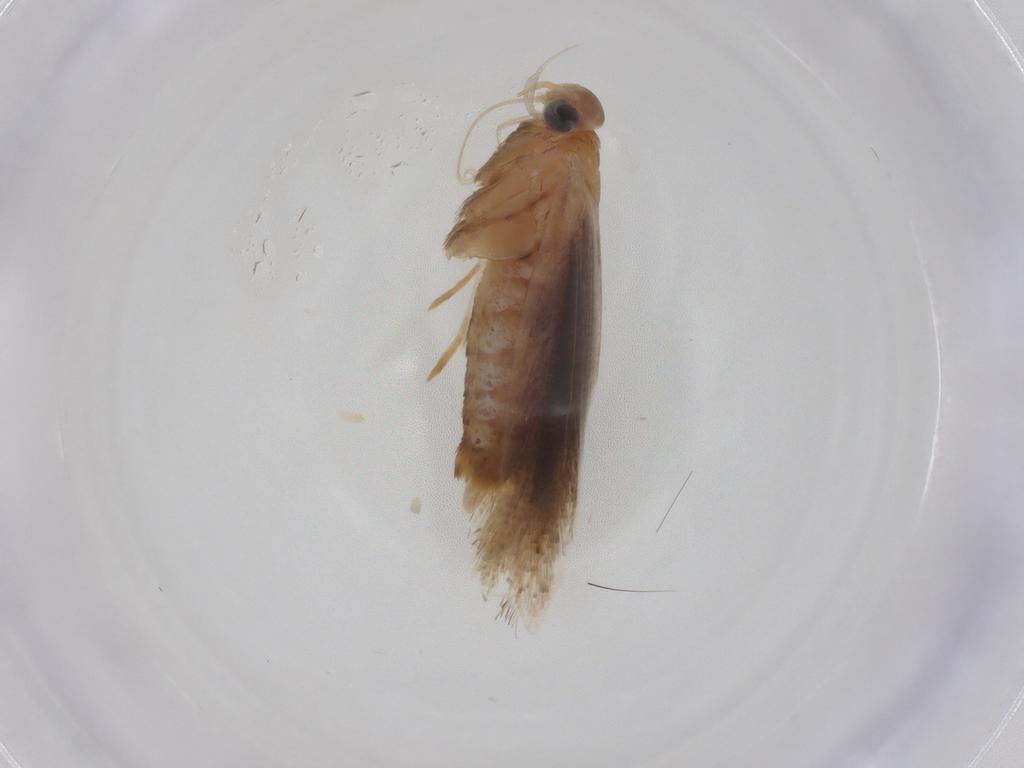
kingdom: Animalia
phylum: Arthropoda
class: Insecta
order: Lepidoptera
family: Gelechiidae
